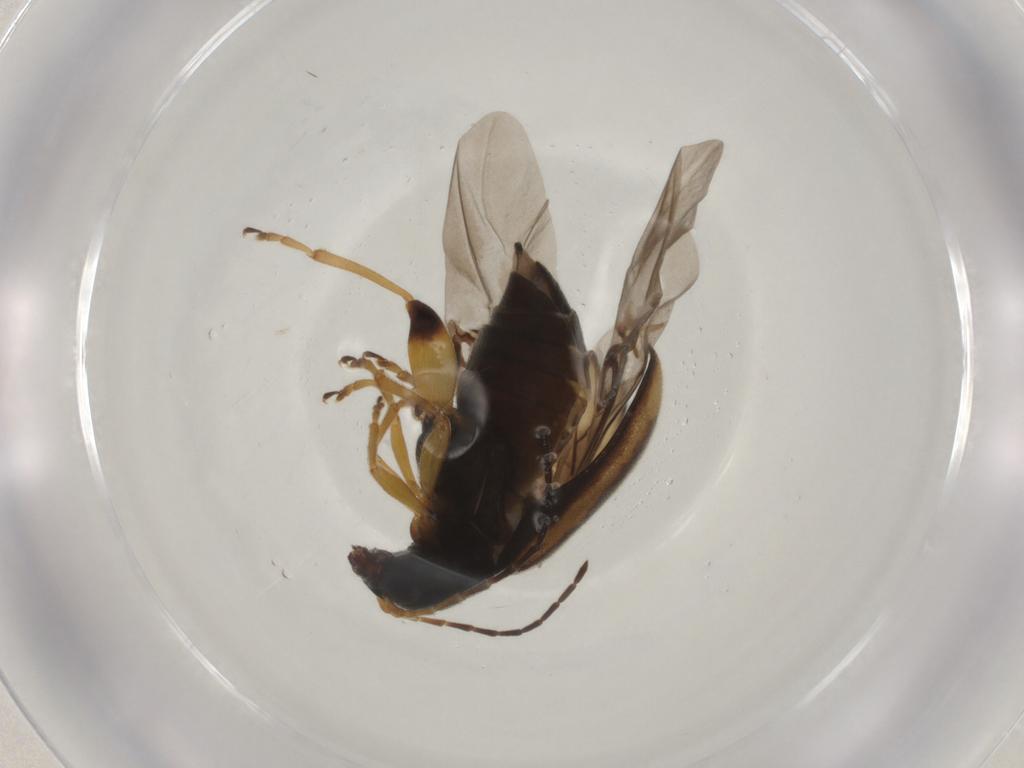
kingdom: Animalia
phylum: Arthropoda
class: Insecta
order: Coleoptera
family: Chrysomelidae
